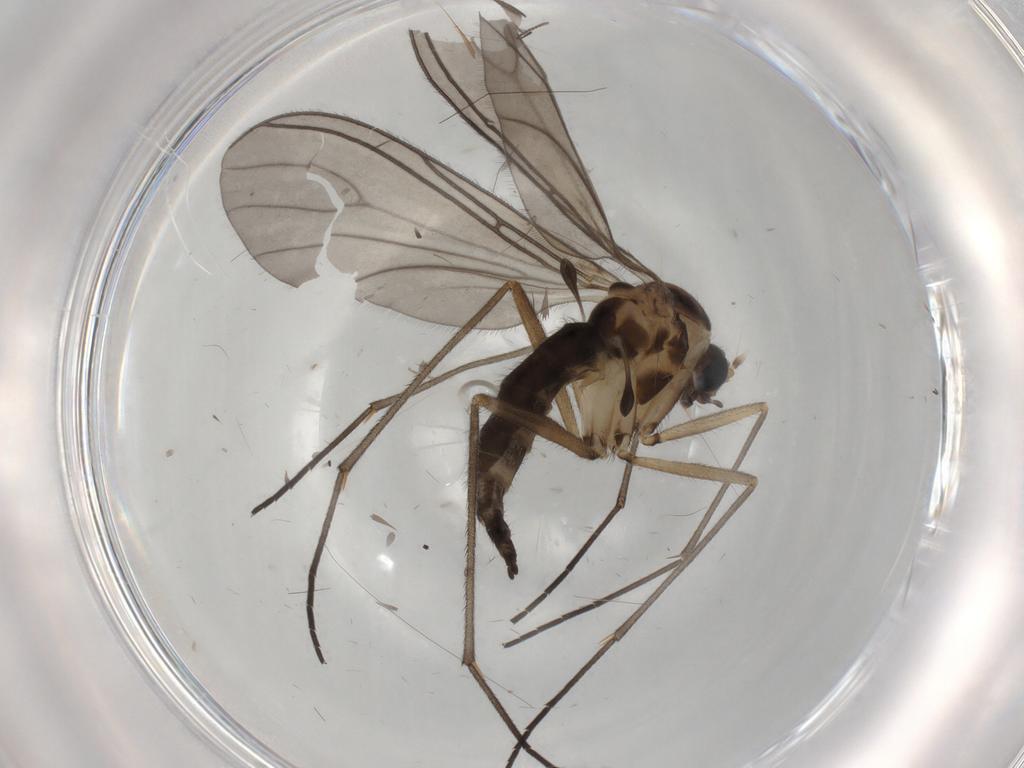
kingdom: Animalia
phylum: Arthropoda
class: Insecta
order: Diptera
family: Sciaridae
